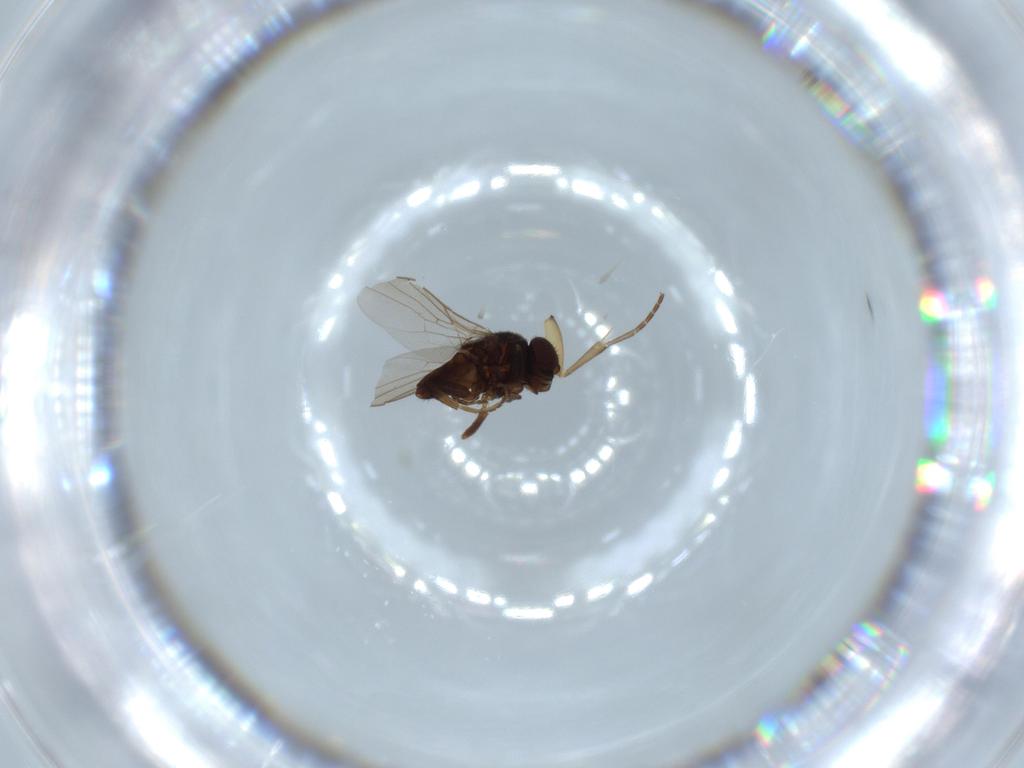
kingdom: Animalia
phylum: Arthropoda
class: Insecta
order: Diptera
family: Chloropidae
